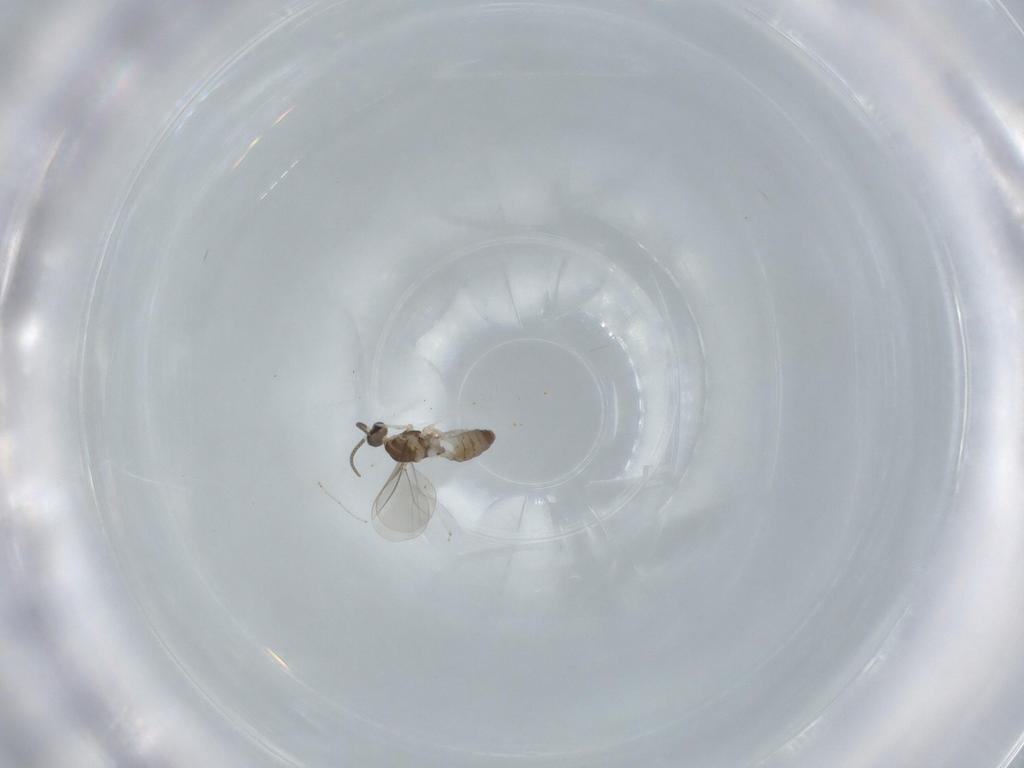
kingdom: Animalia
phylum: Arthropoda
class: Insecta
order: Diptera
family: Cecidomyiidae
